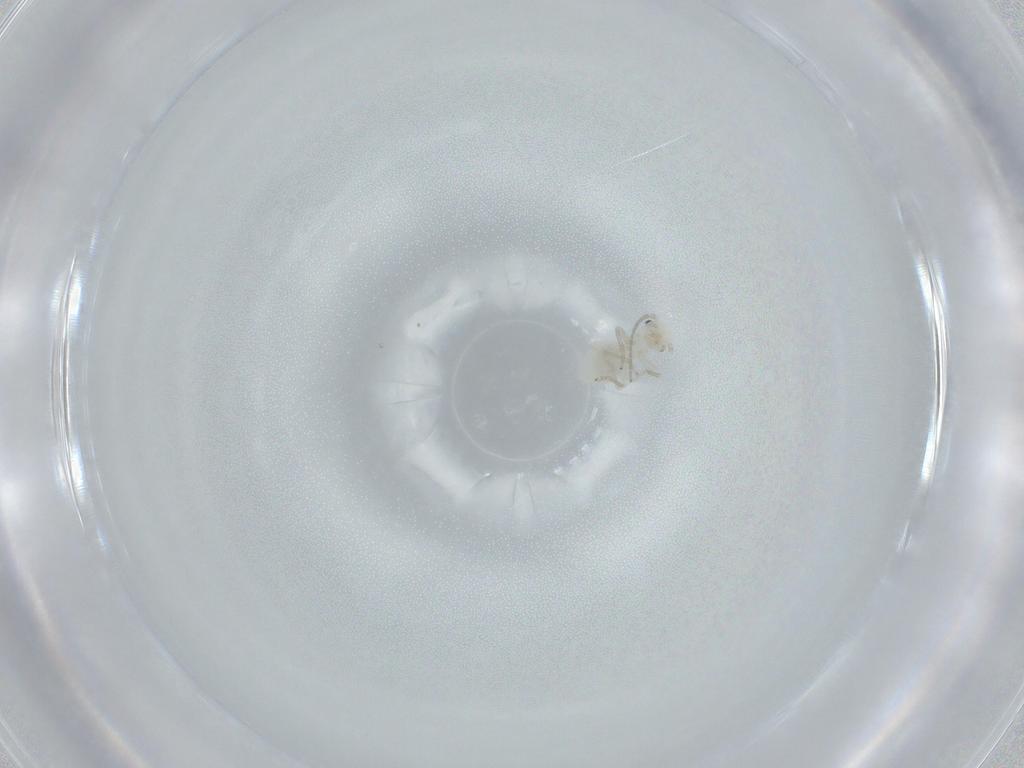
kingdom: Animalia
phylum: Arthropoda
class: Insecta
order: Psocodea
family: Caeciliusidae
